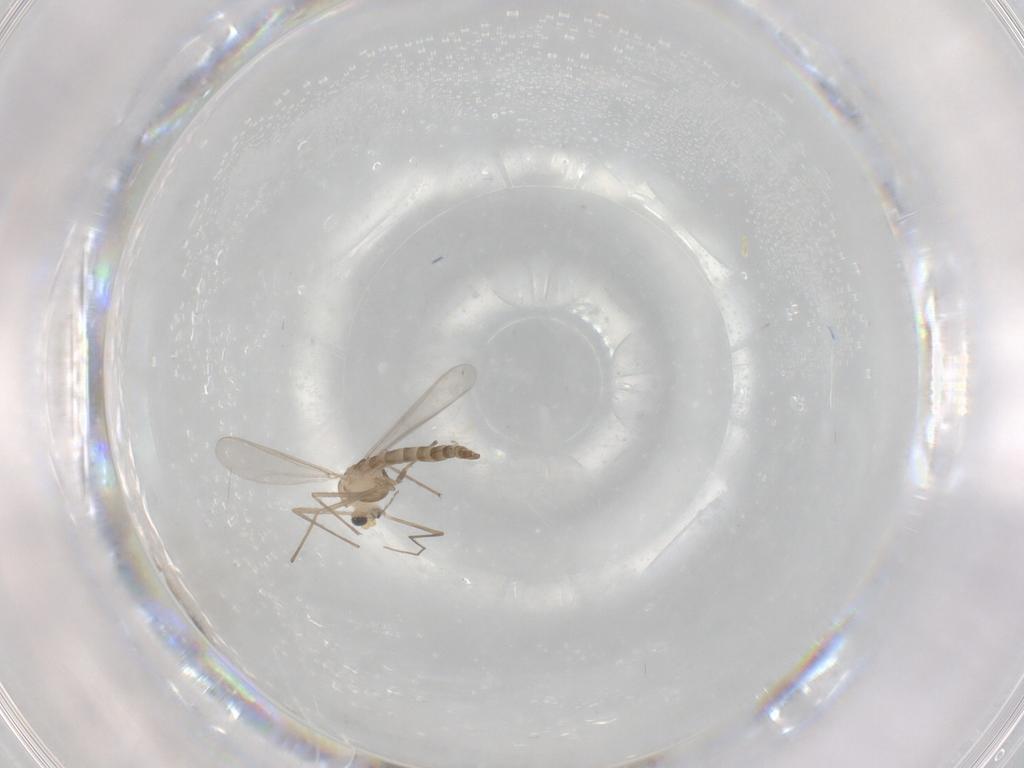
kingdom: Animalia
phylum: Arthropoda
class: Insecta
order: Diptera
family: Chironomidae
